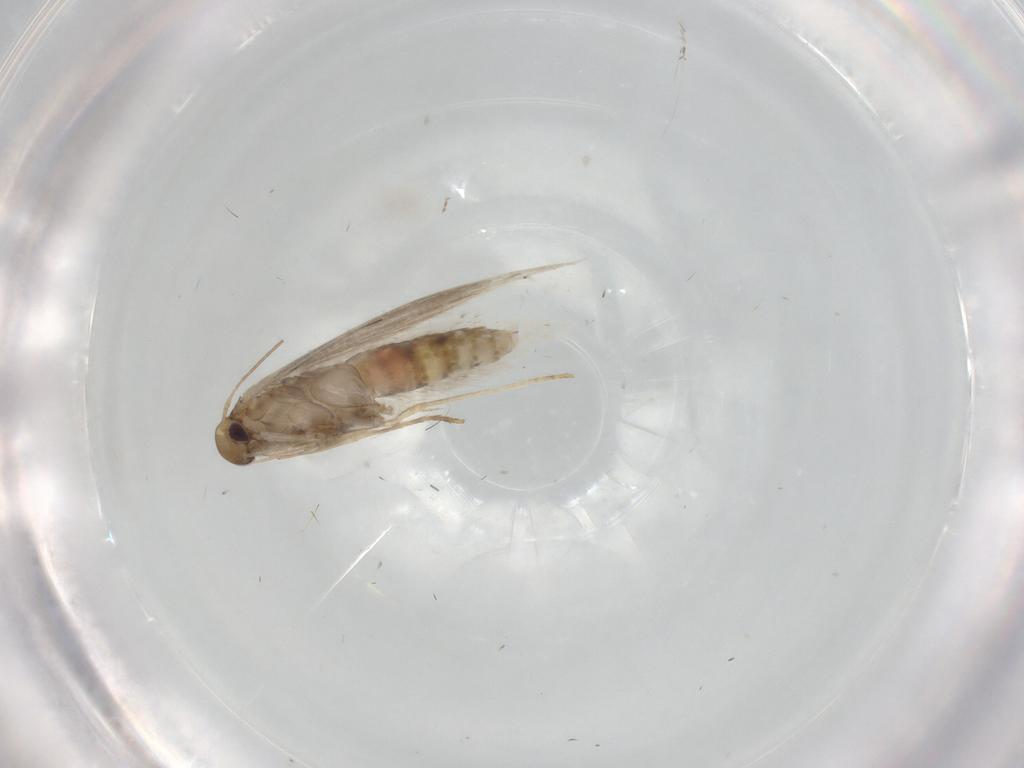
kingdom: Animalia
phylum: Arthropoda
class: Insecta
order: Lepidoptera
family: Gracillariidae
